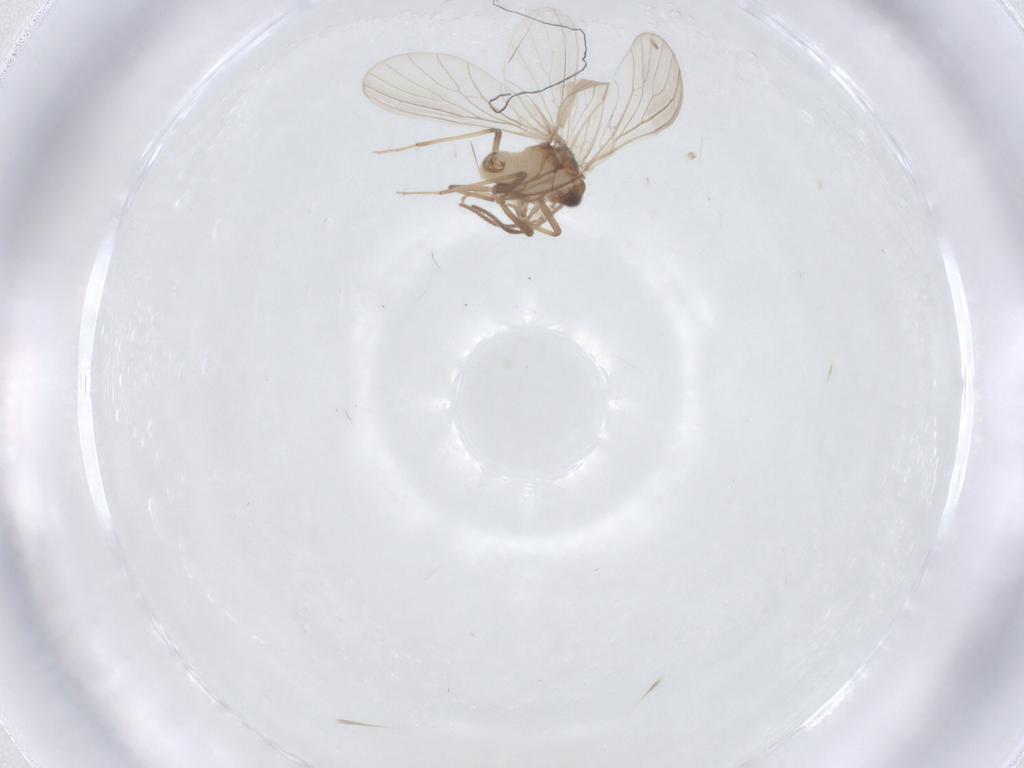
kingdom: Animalia
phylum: Arthropoda
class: Insecta
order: Neuroptera
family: Coniopterygidae
